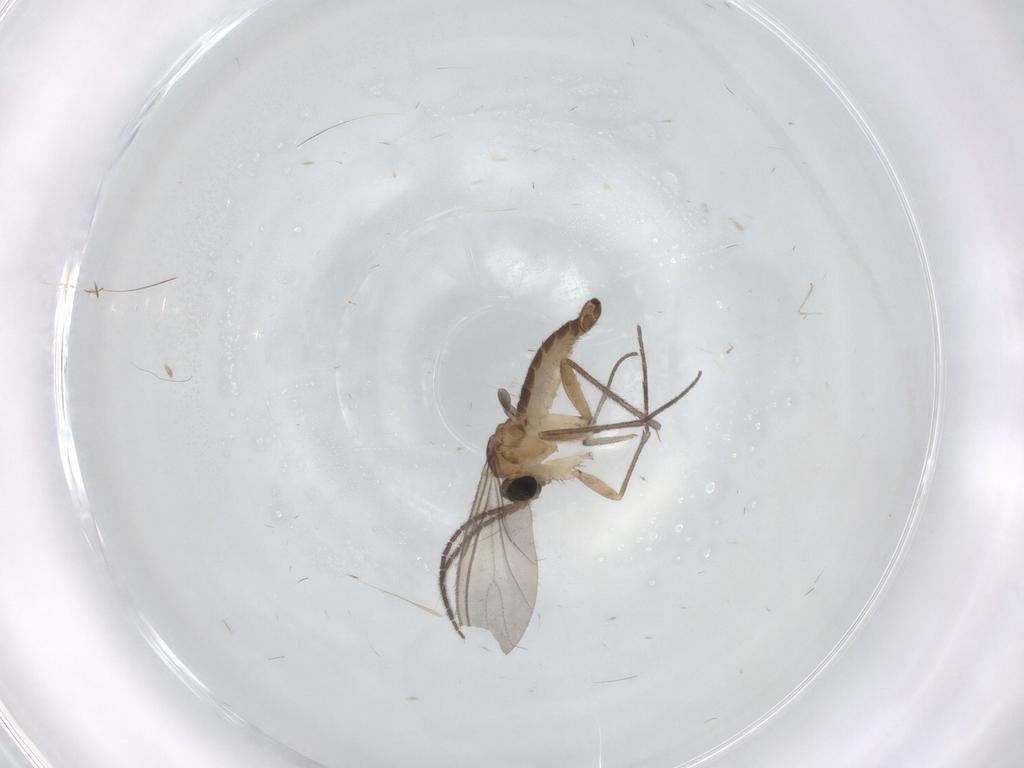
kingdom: Animalia
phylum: Arthropoda
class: Insecta
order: Diptera
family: Sciaridae
